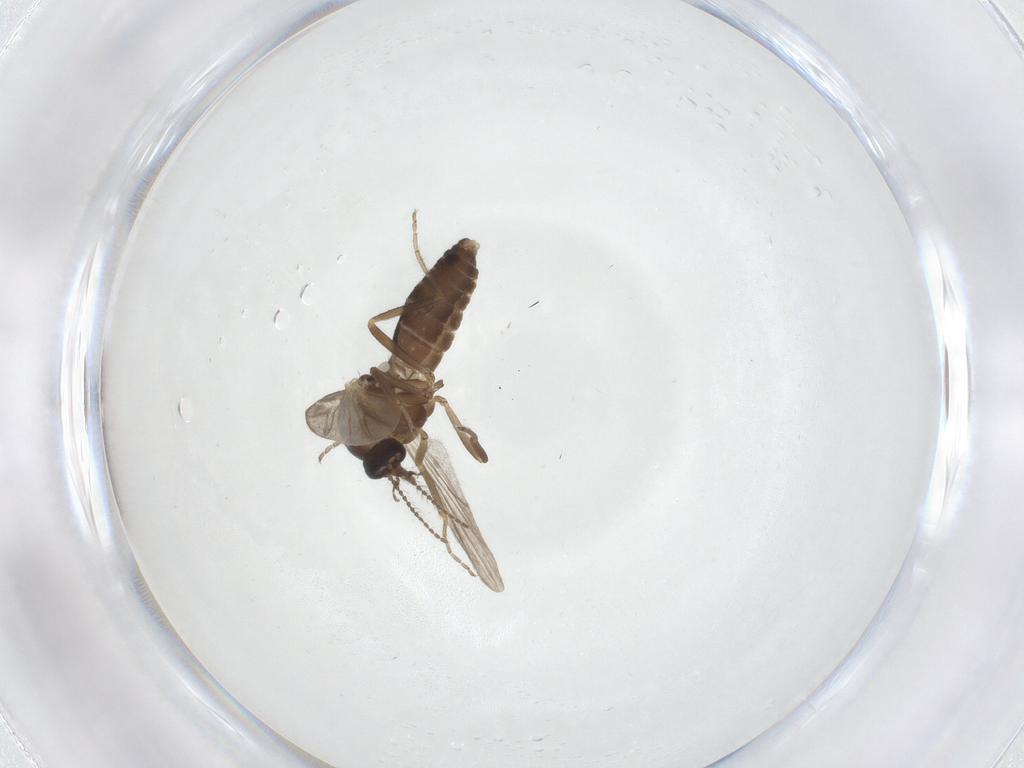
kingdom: Animalia
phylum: Arthropoda
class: Insecta
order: Diptera
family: Ceratopogonidae
